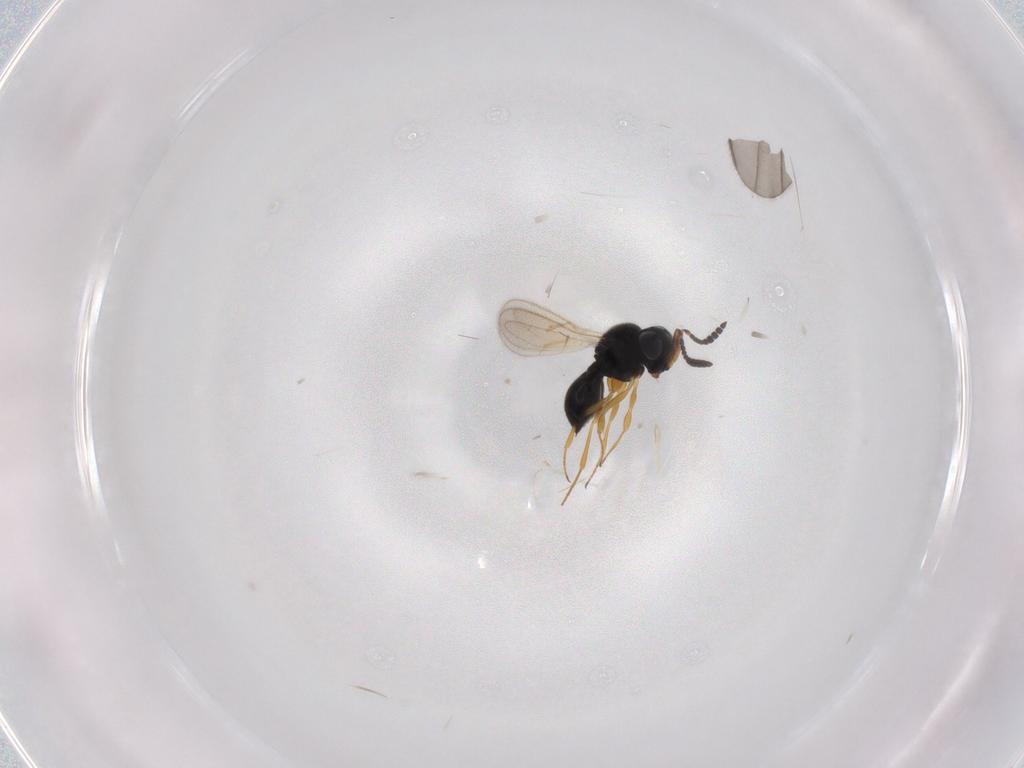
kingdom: Animalia
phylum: Arthropoda
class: Insecta
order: Hymenoptera
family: Scelionidae
